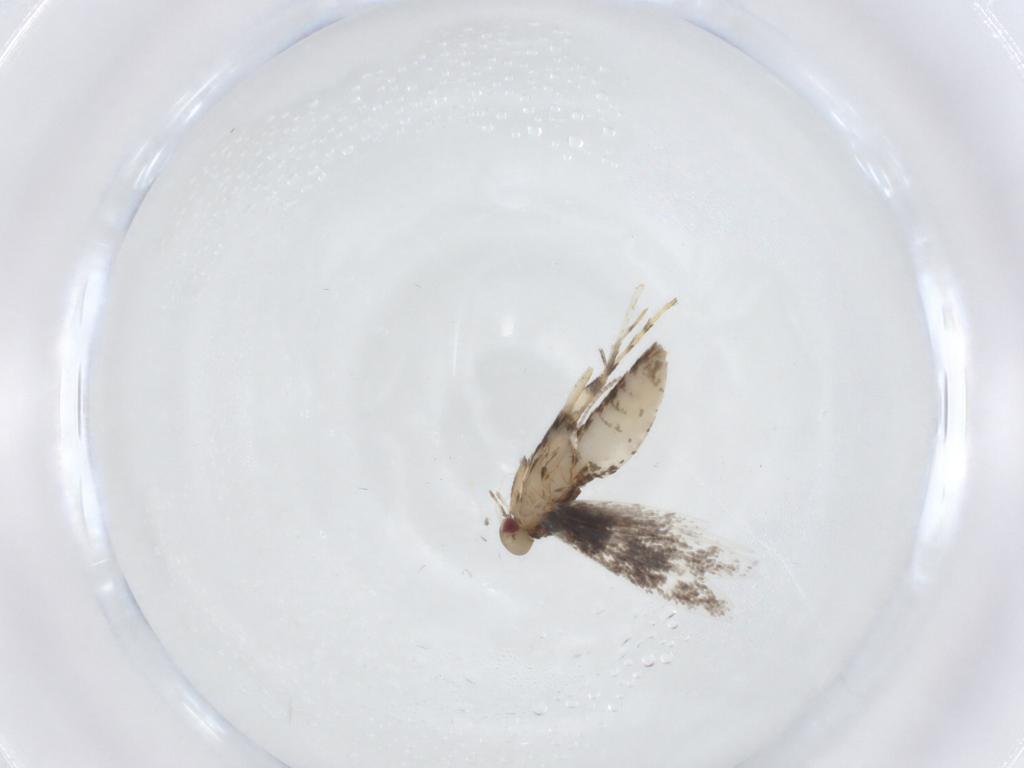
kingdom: Animalia
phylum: Arthropoda
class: Insecta
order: Lepidoptera
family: Gracillariidae
